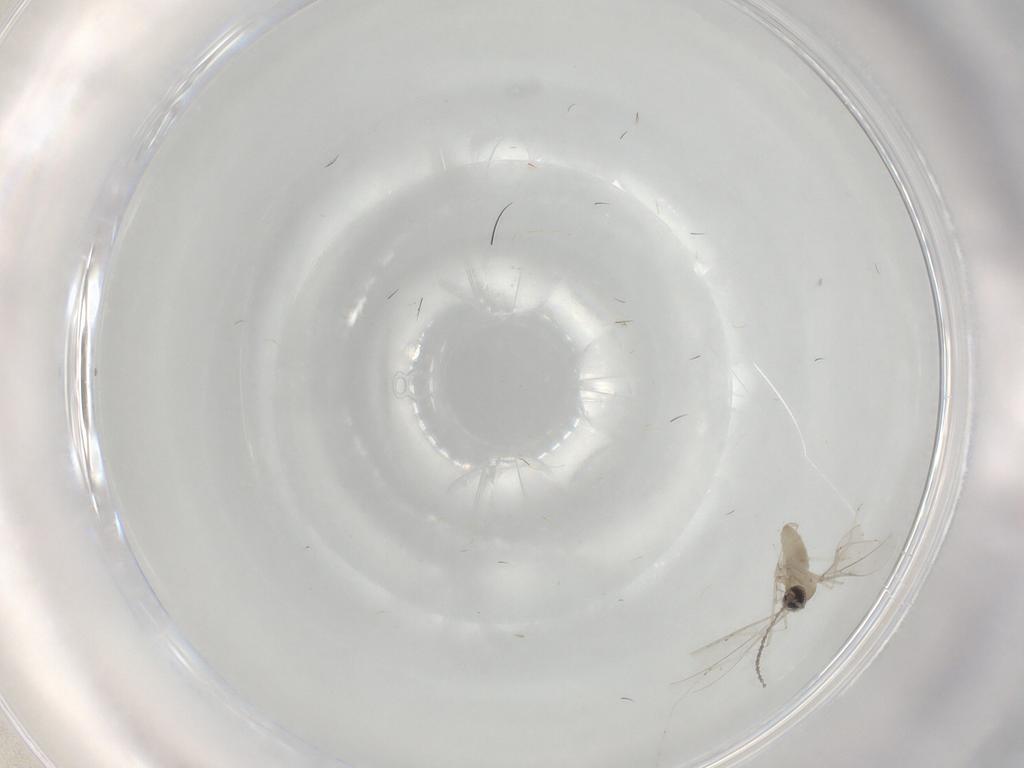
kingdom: Animalia
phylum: Arthropoda
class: Insecta
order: Diptera
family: Cecidomyiidae
